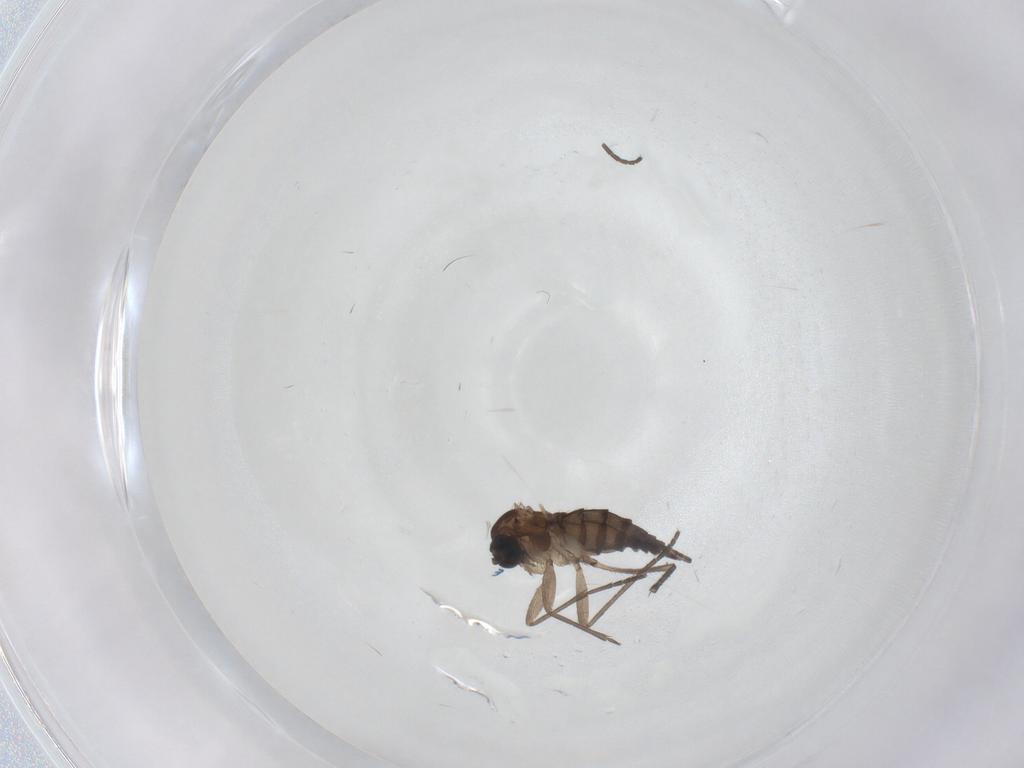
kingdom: Animalia
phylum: Arthropoda
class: Insecta
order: Diptera
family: Sciaridae
